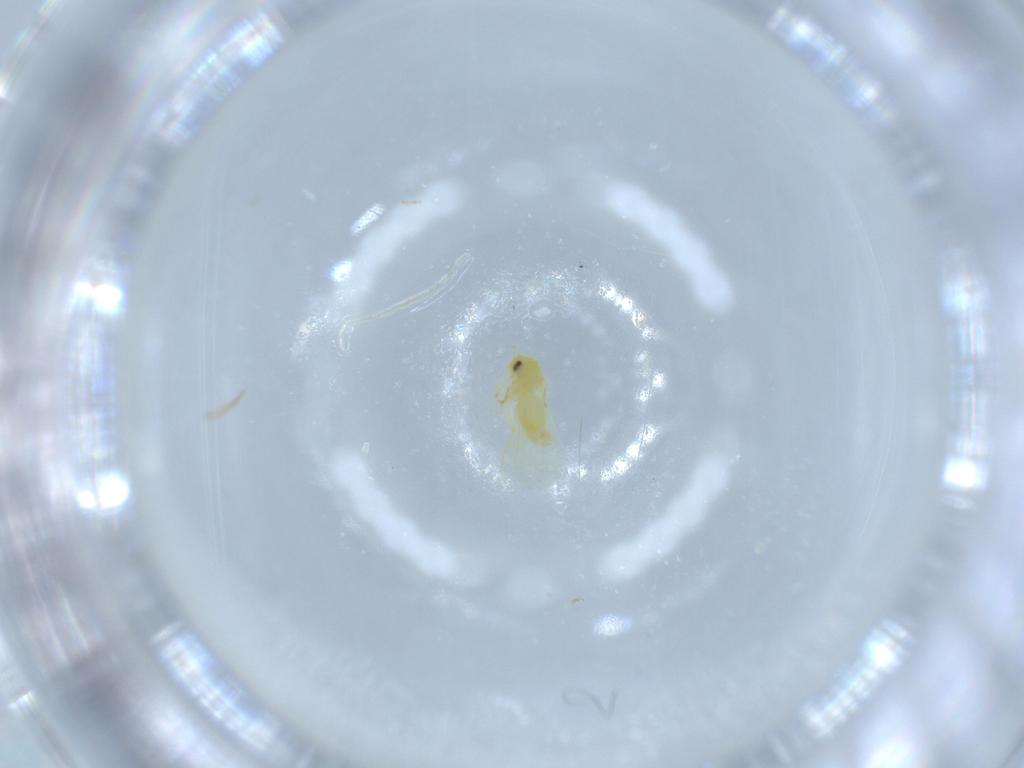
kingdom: Animalia
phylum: Arthropoda
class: Insecta
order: Hemiptera
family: Aleyrodidae
